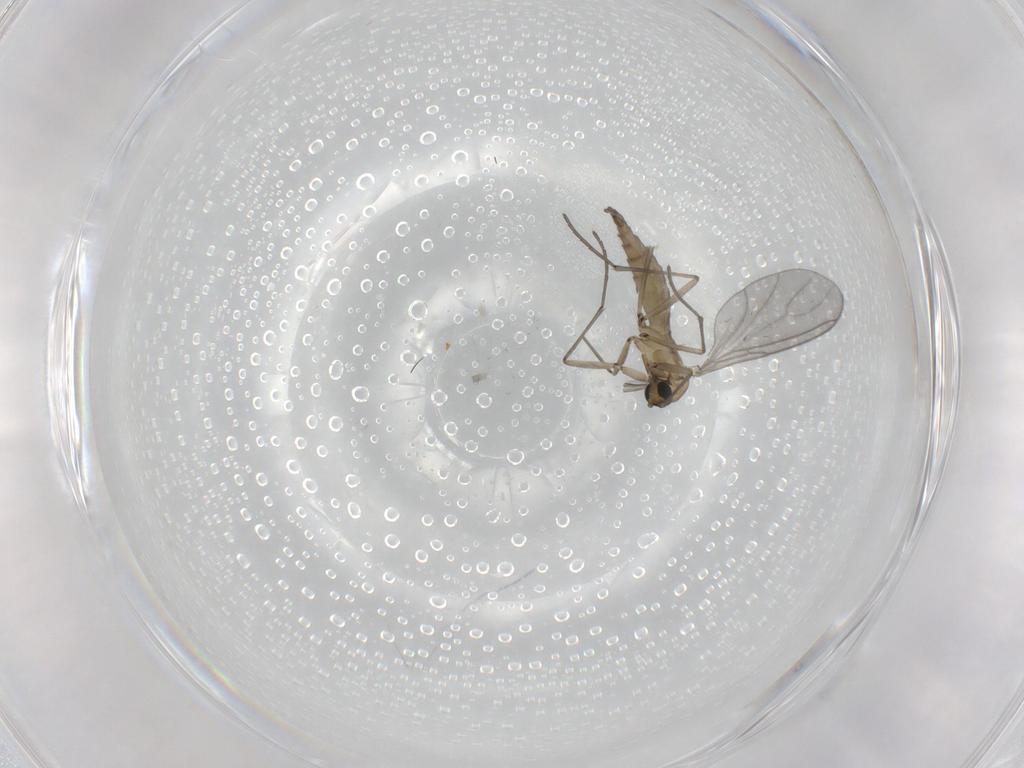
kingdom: Animalia
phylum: Arthropoda
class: Insecta
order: Diptera
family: Sciaridae
